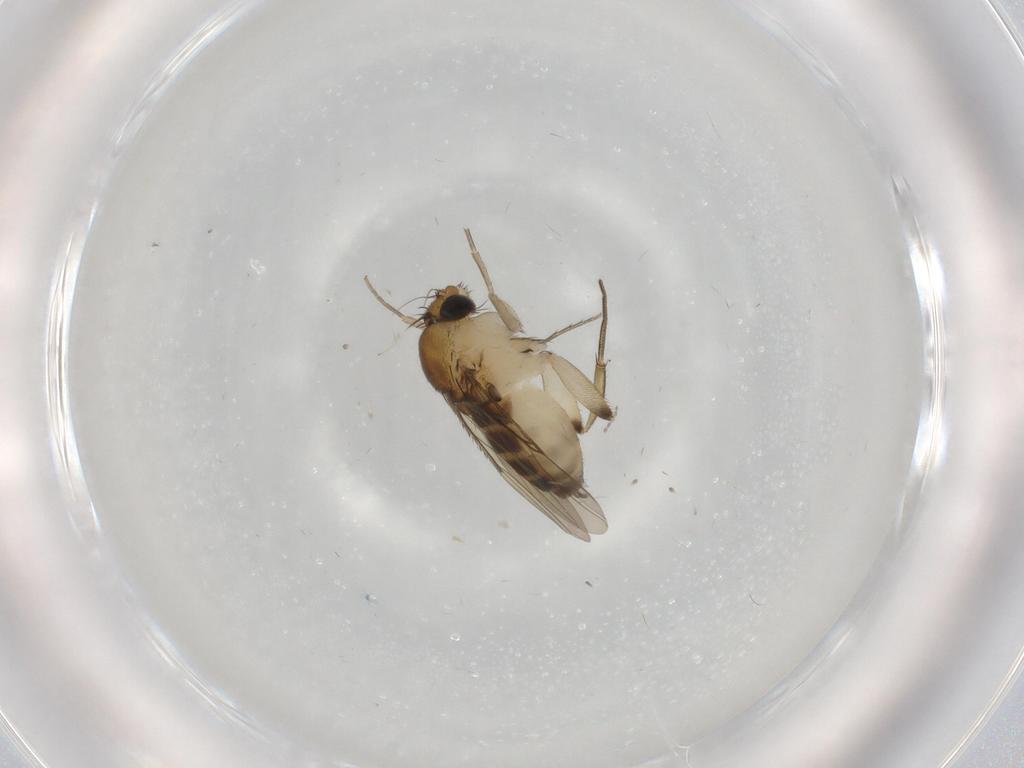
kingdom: Animalia
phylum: Arthropoda
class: Insecta
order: Diptera
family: Phoridae
